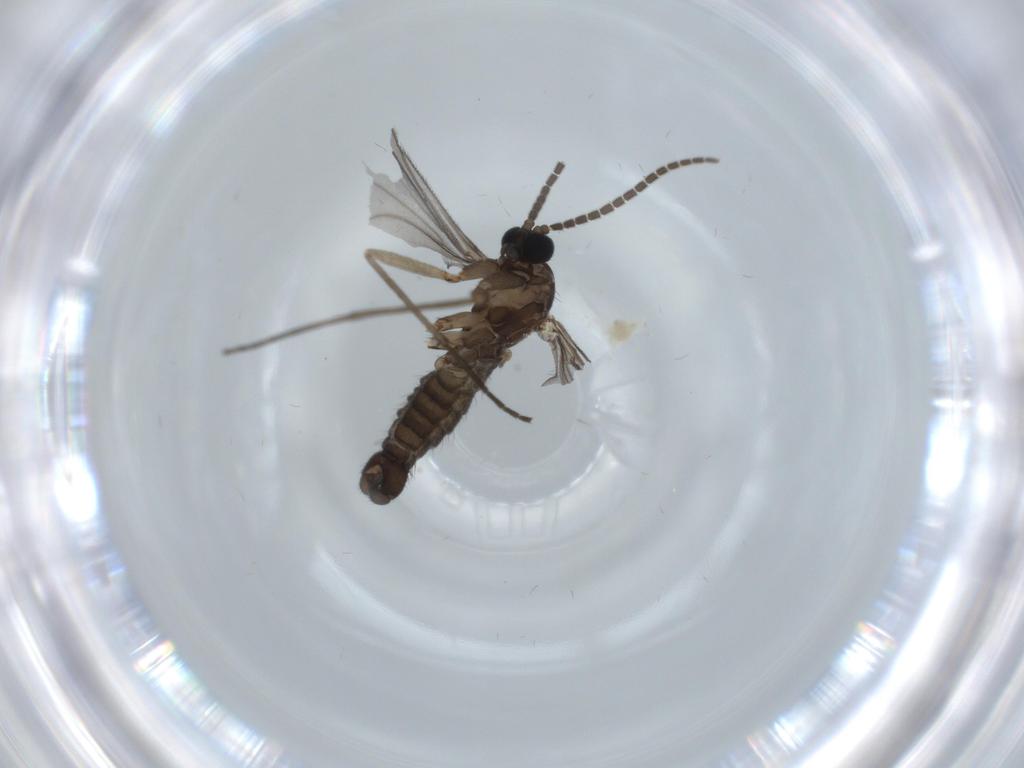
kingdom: Animalia
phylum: Arthropoda
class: Insecta
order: Diptera
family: Sciaridae
